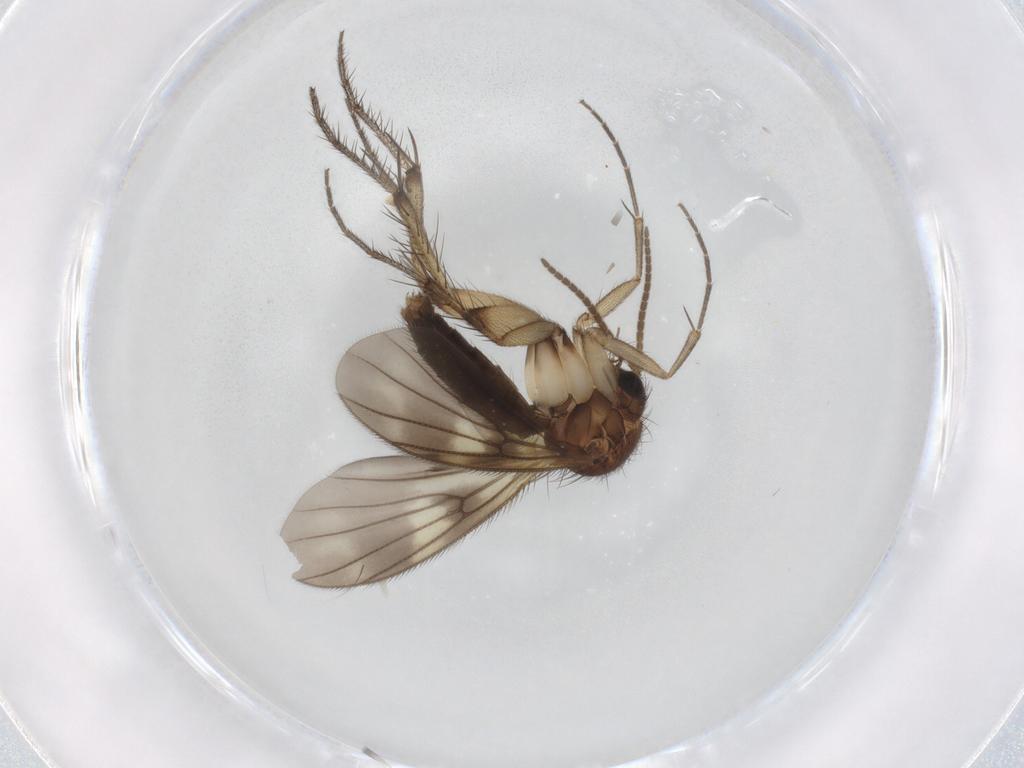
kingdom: Animalia
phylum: Arthropoda
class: Insecta
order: Diptera
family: Mycetophilidae
